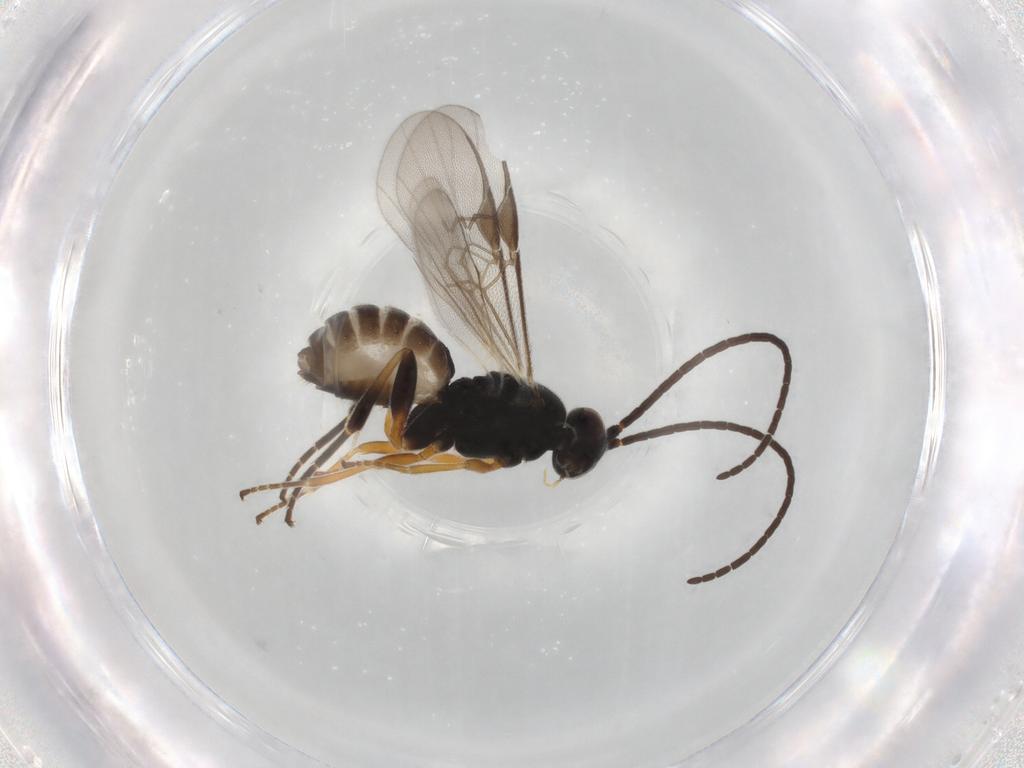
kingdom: Animalia
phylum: Arthropoda
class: Insecta
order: Hymenoptera
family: Braconidae
